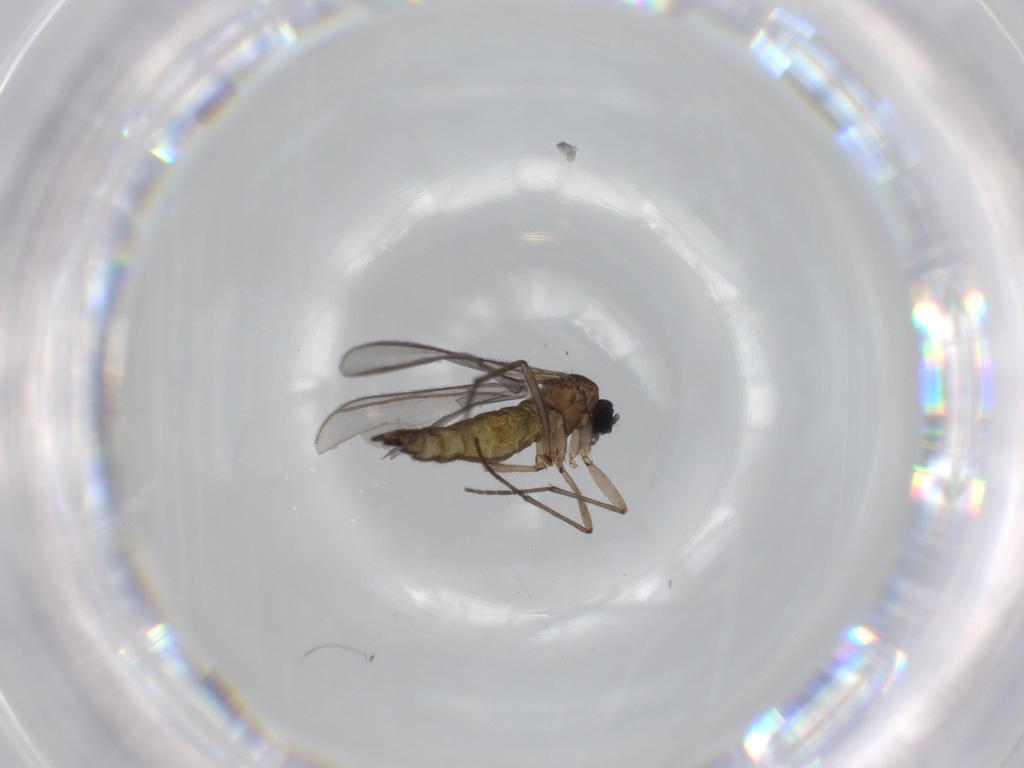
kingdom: Animalia
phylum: Arthropoda
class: Insecta
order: Diptera
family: Sciaridae
